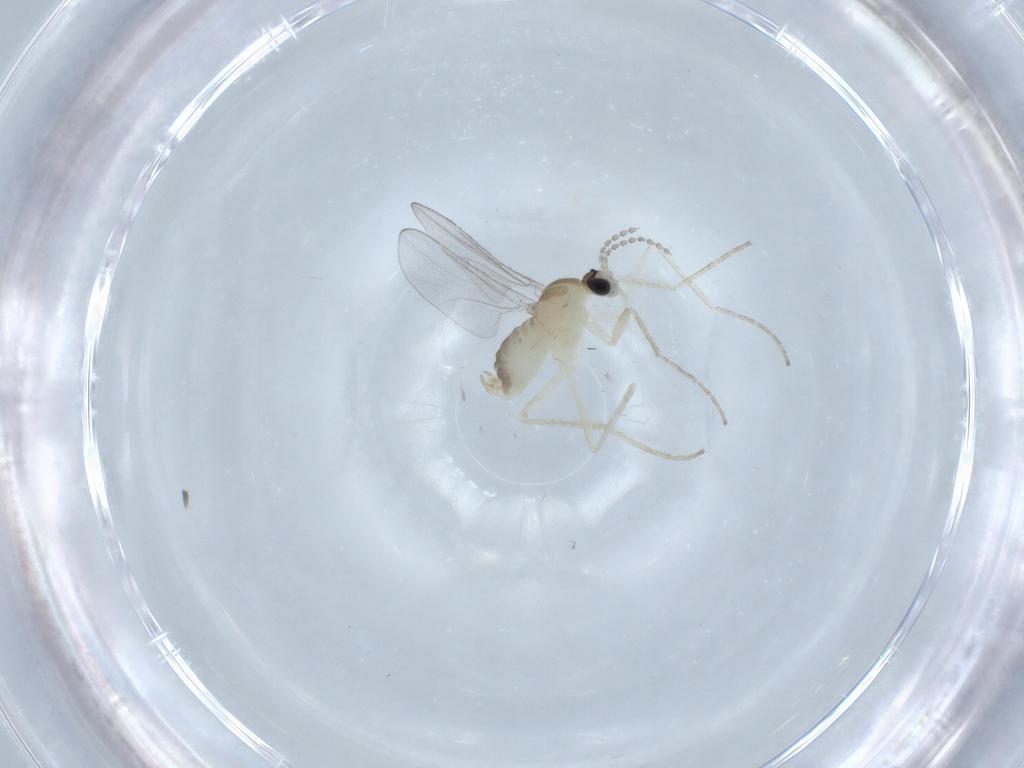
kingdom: Animalia
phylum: Arthropoda
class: Insecta
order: Diptera
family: Cecidomyiidae
